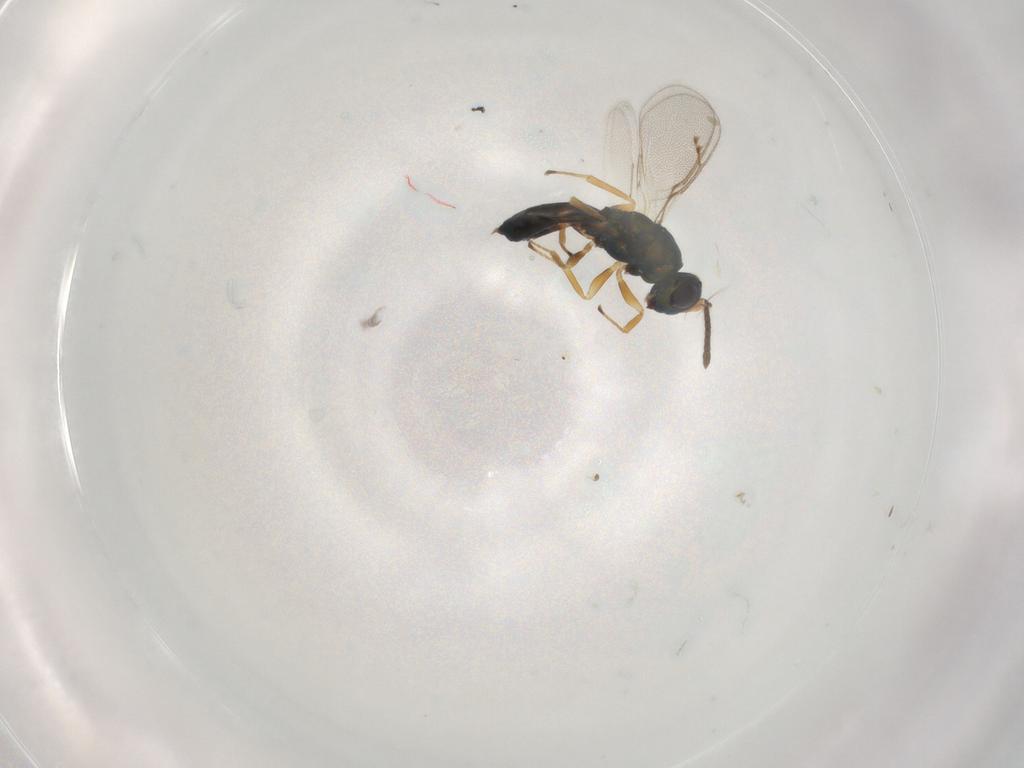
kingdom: Animalia
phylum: Arthropoda
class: Insecta
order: Hymenoptera
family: Pteromalidae
